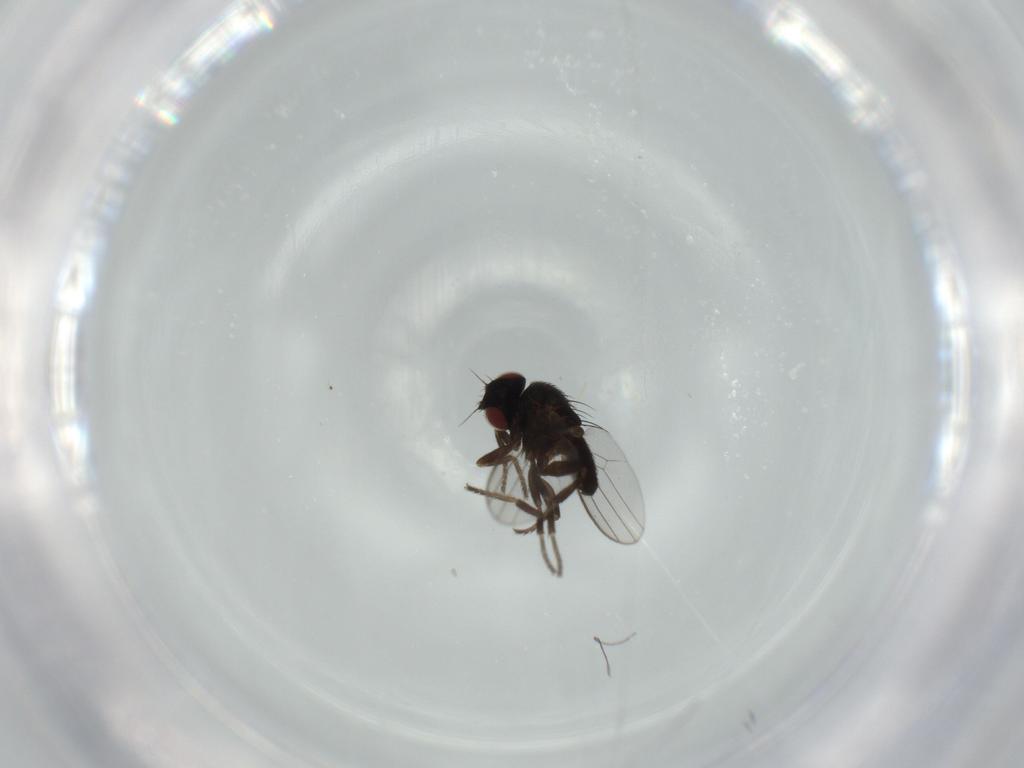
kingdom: Animalia
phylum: Arthropoda
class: Insecta
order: Diptera
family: Milichiidae
